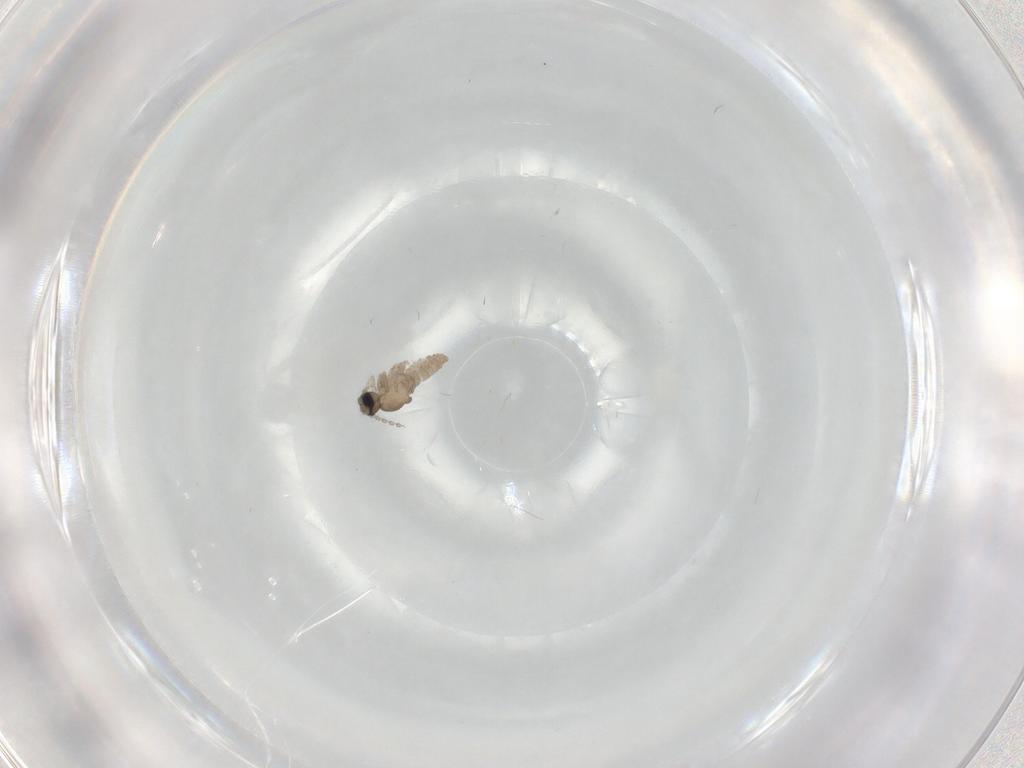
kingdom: Animalia
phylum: Arthropoda
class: Insecta
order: Diptera
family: Cecidomyiidae
